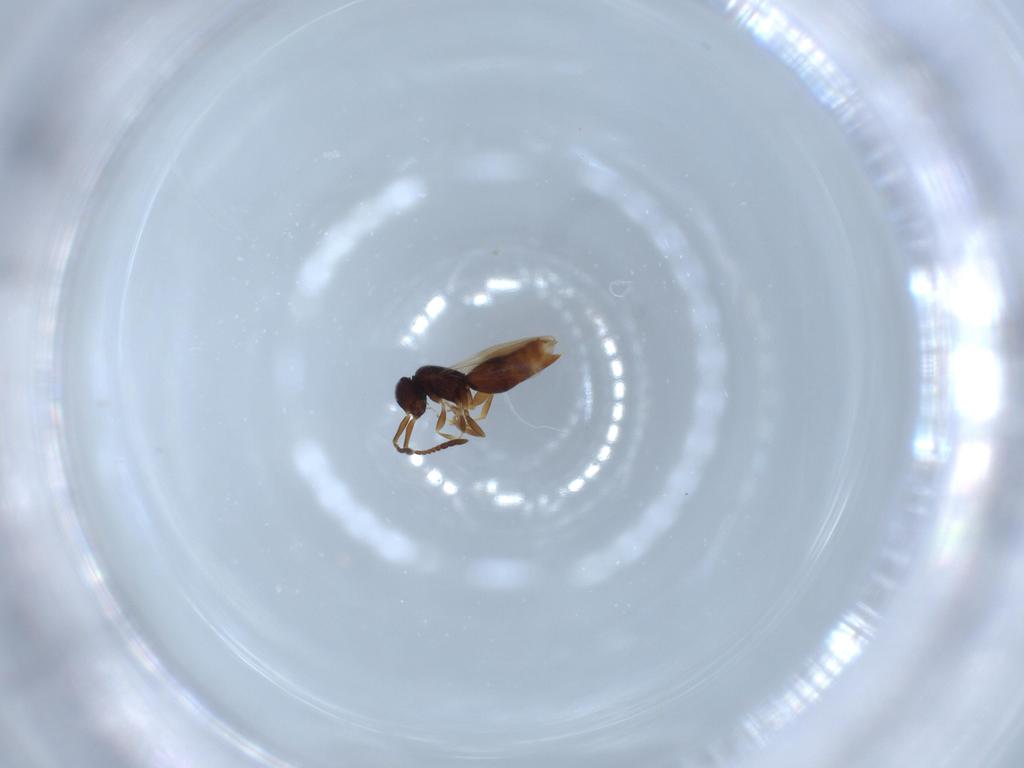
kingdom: Animalia
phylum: Arthropoda
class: Insecta
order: Hymenoptera
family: Ceraphronidae
